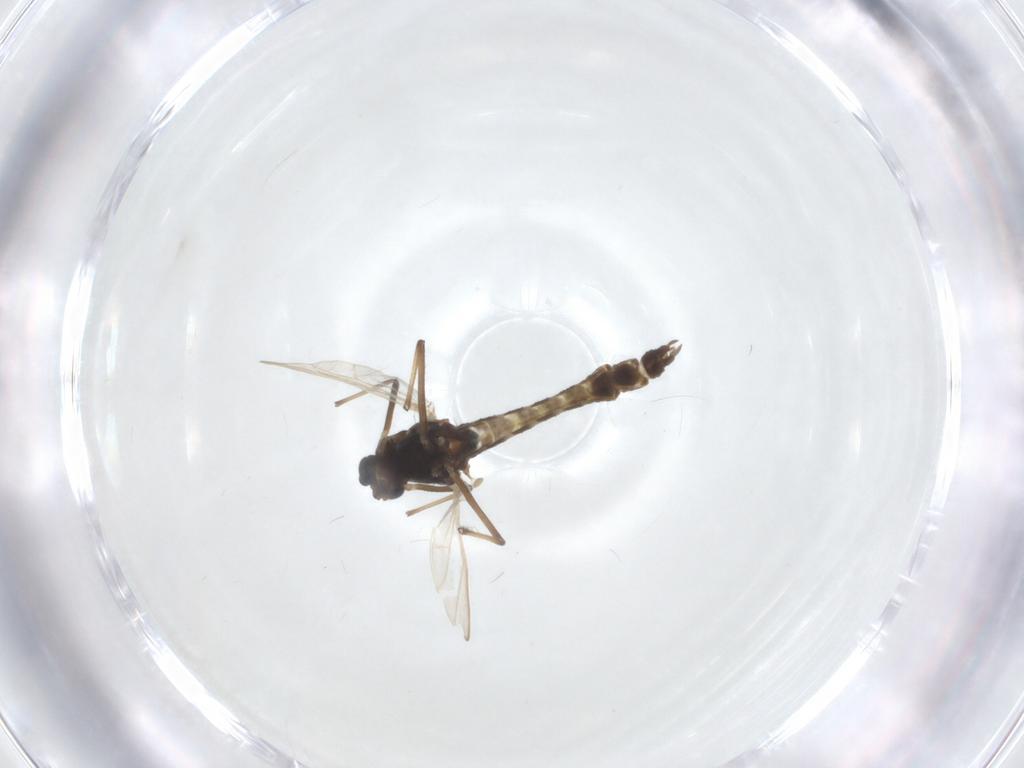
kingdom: Animalia
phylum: Arthropoda
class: Insecta
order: Diptera
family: Chironomidae
